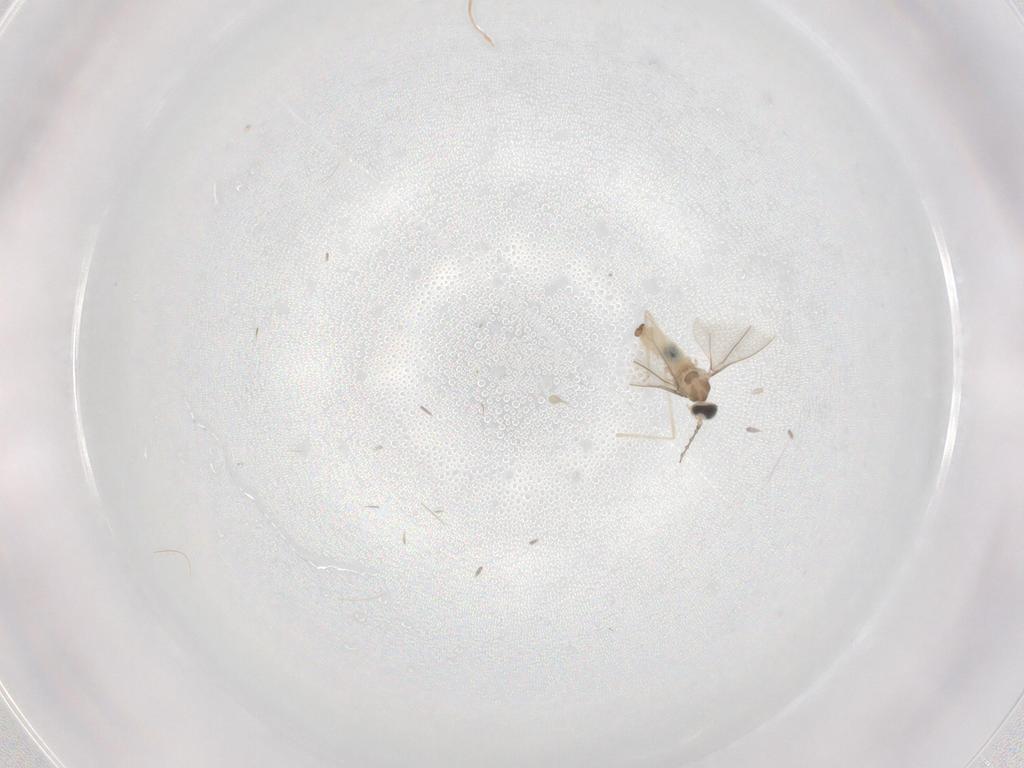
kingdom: Animalia
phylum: Arthropoda
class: Insecta
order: Diptera
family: Cecidomyiidae
